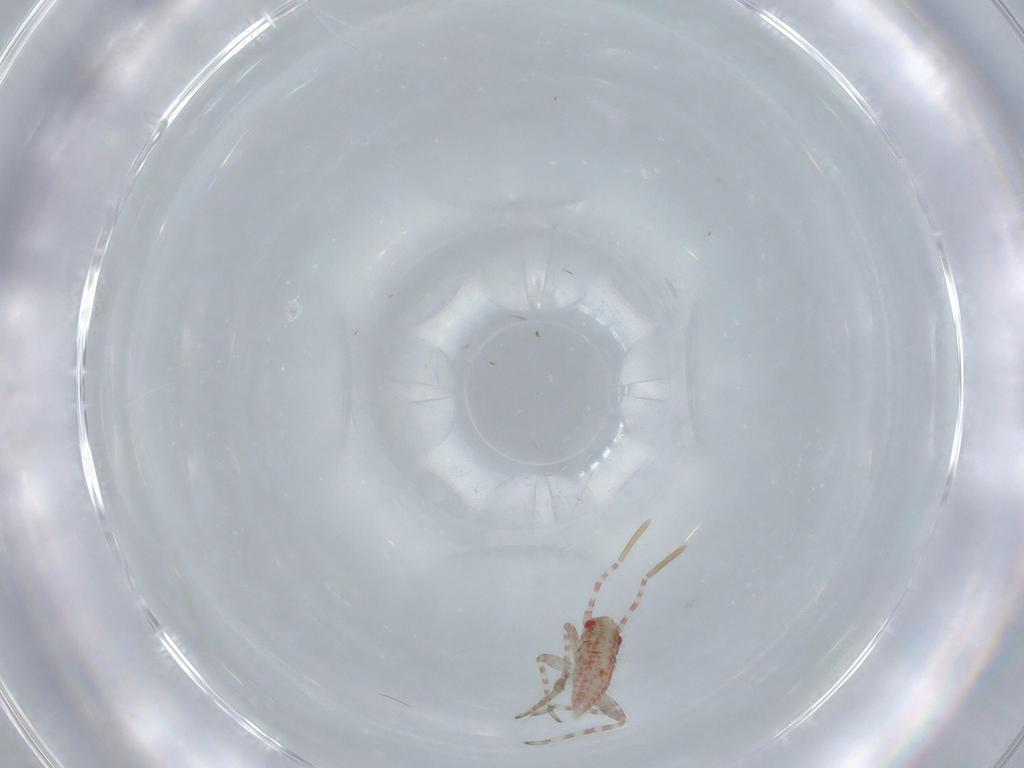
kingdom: Animalia
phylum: Arthropoda
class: Insecta
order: Hemiptera
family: Miridae
